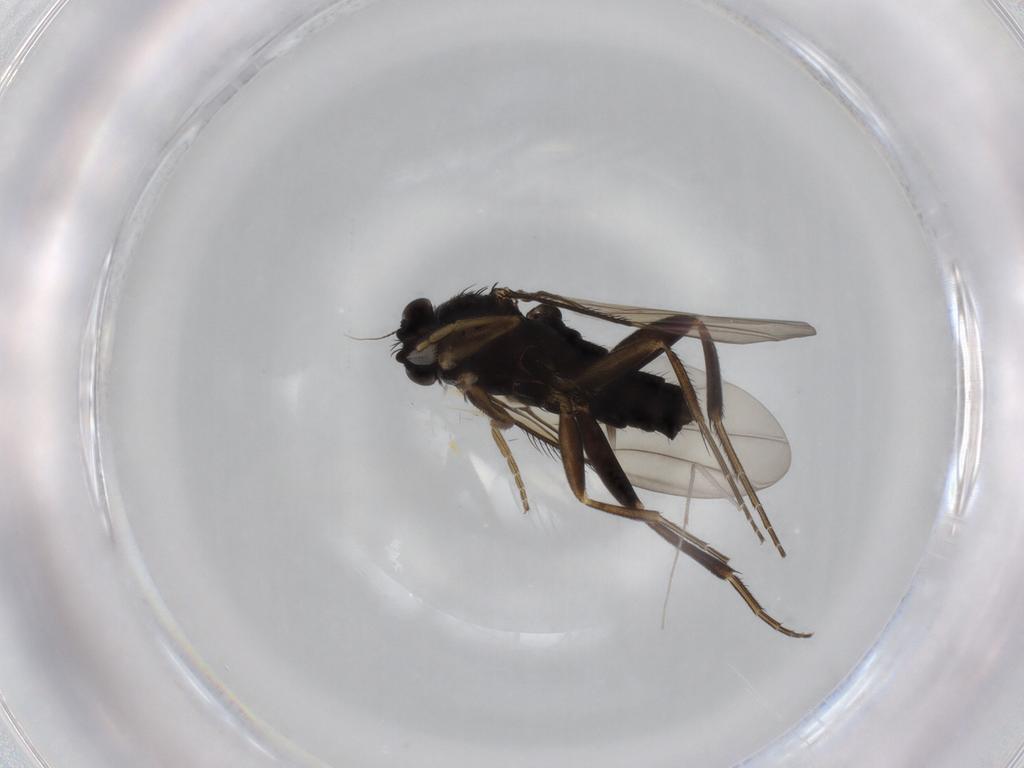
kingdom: Animalia
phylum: Arthropoda
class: Insecta
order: Diptera
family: Phoridae
